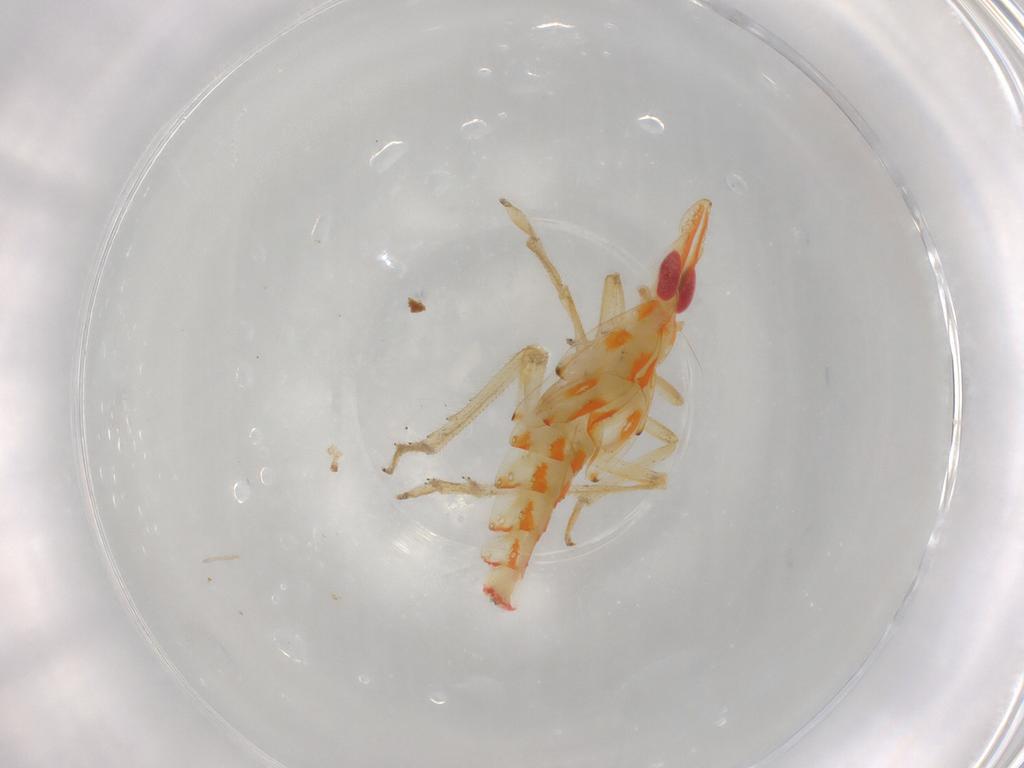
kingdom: Animalia
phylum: Arthropoda
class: Insecta
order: Hemiptera
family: Tropiduchidae
